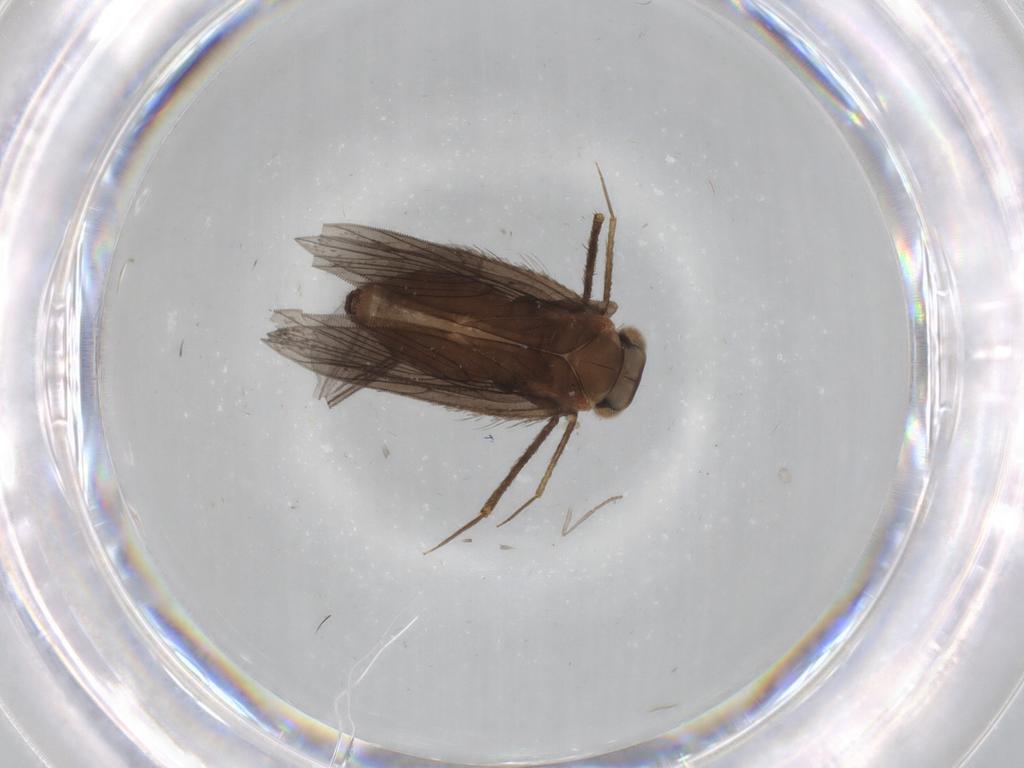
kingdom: Animalia
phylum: Arthropoda
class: Insecta
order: Psocodea
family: Lepidopsocidae
